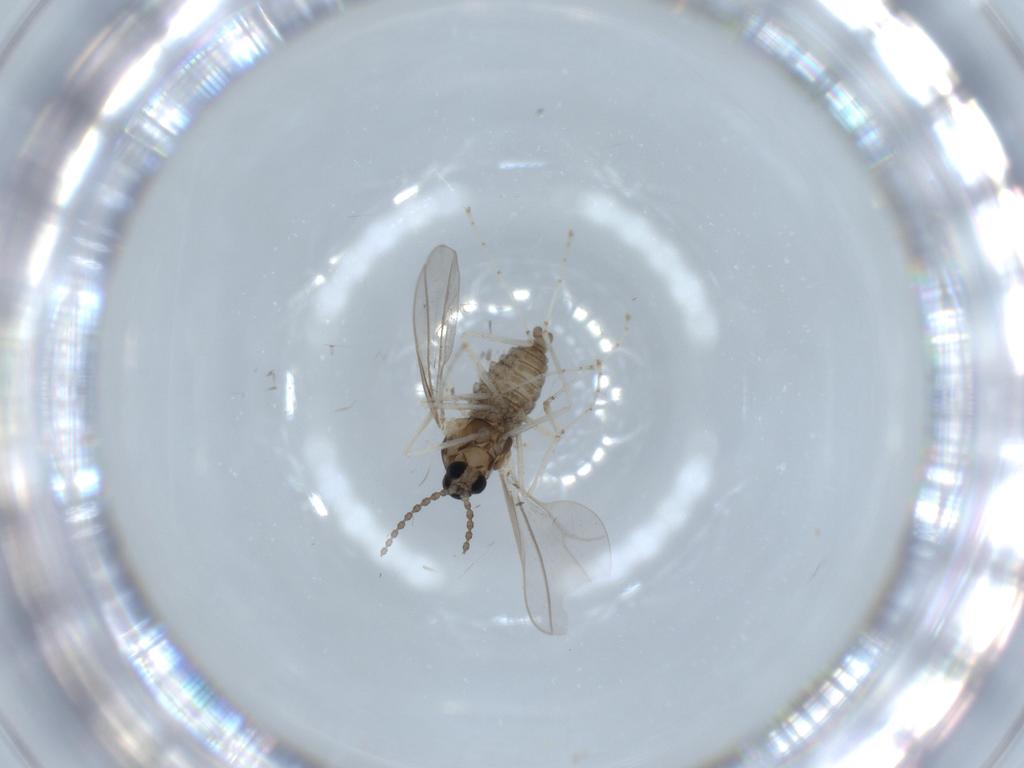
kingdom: Animalia
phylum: Arthropoda
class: Insecta
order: Diptera
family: Cecidomyiidae
